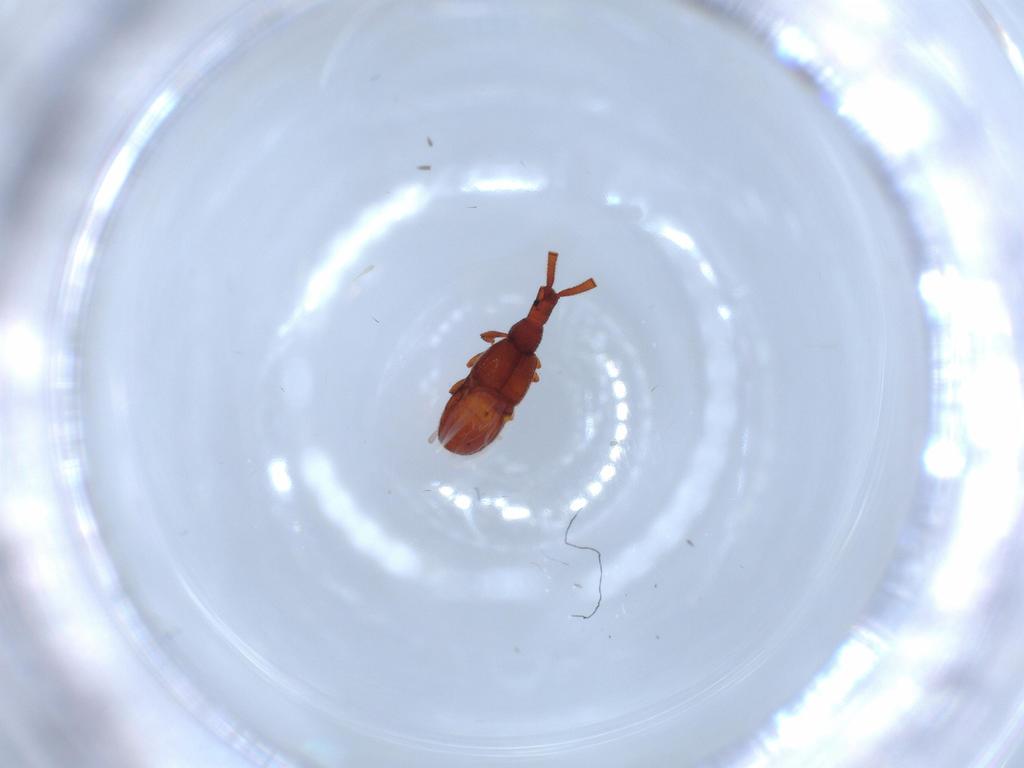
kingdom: Animalia
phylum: Arthropoda
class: Insecta
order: Coleoptera
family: Staphylinidae
